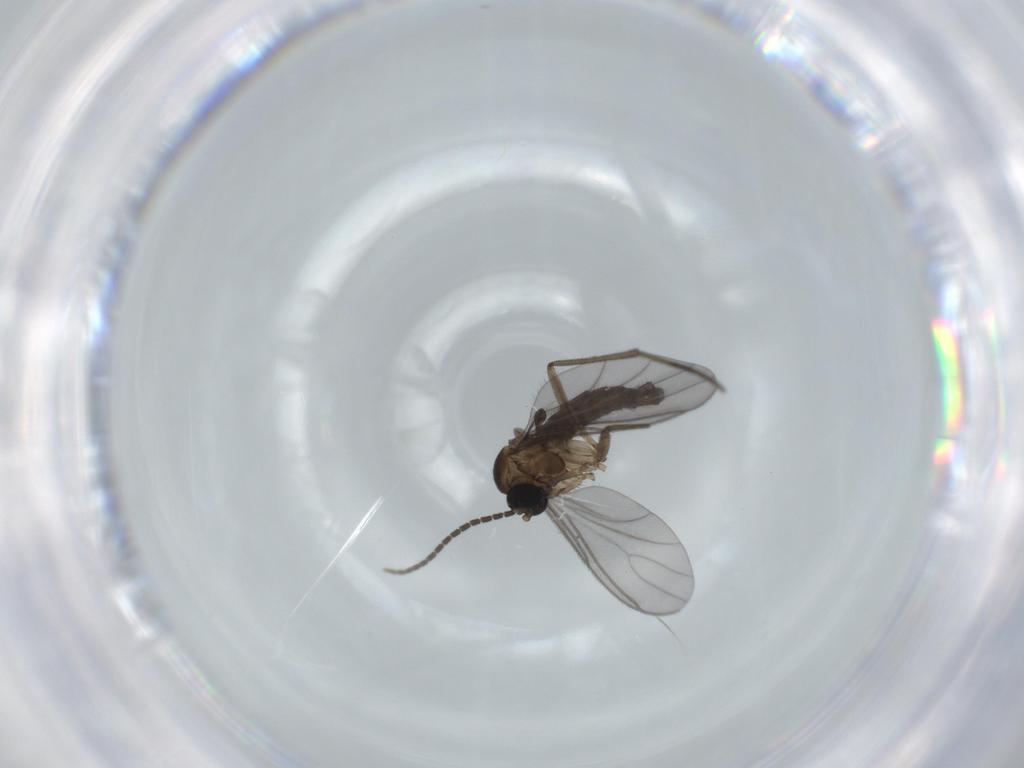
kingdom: Animalia
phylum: Arthropoda
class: Insecta
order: Diptera
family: Sciaridae
